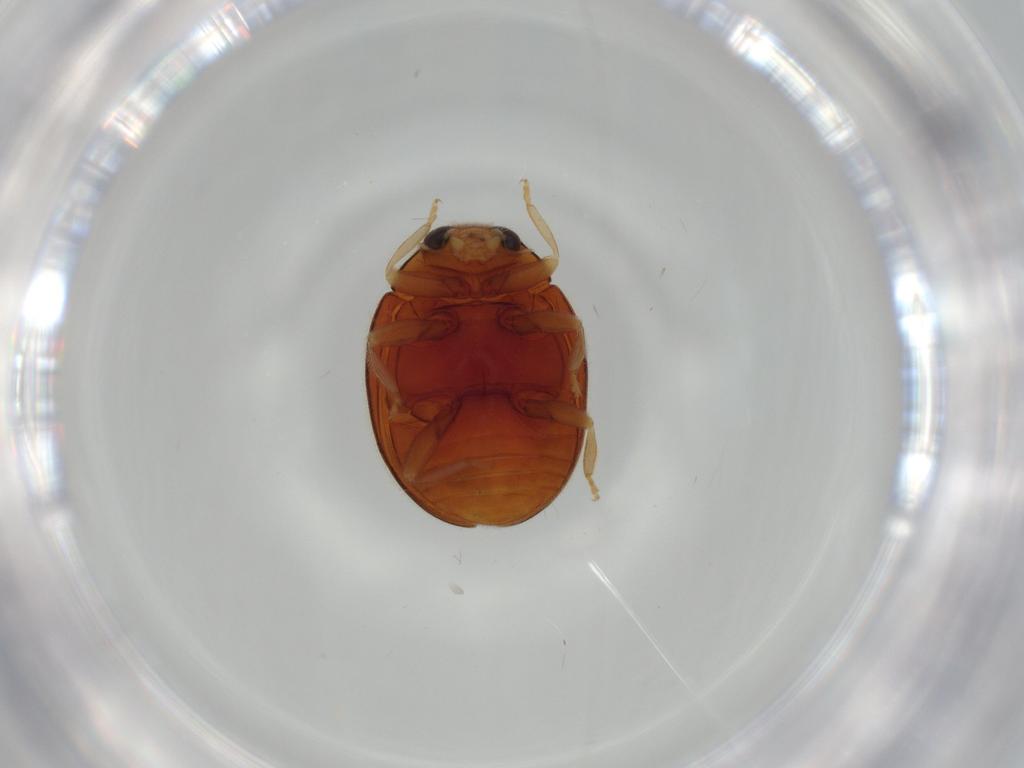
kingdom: Animalia
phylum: Arthropoda
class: Insecta
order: Coleoptera
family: Coccinellidae
